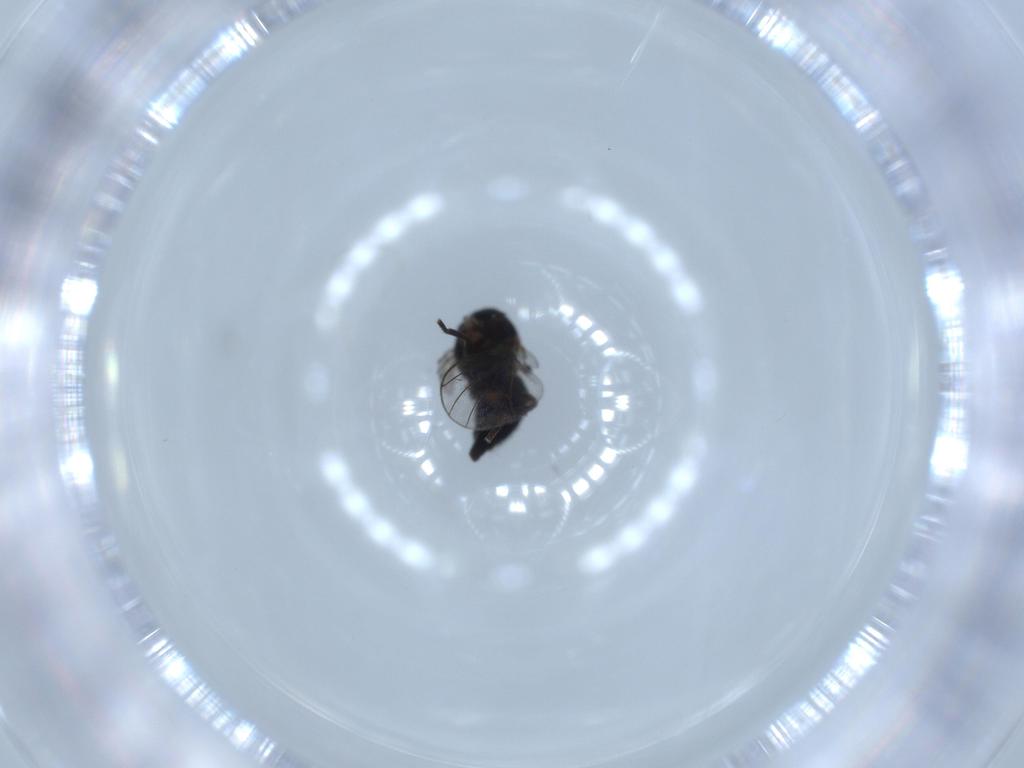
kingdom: Animalia
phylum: Arthropoda
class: Insecta
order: Diptera
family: Agromyzidae
